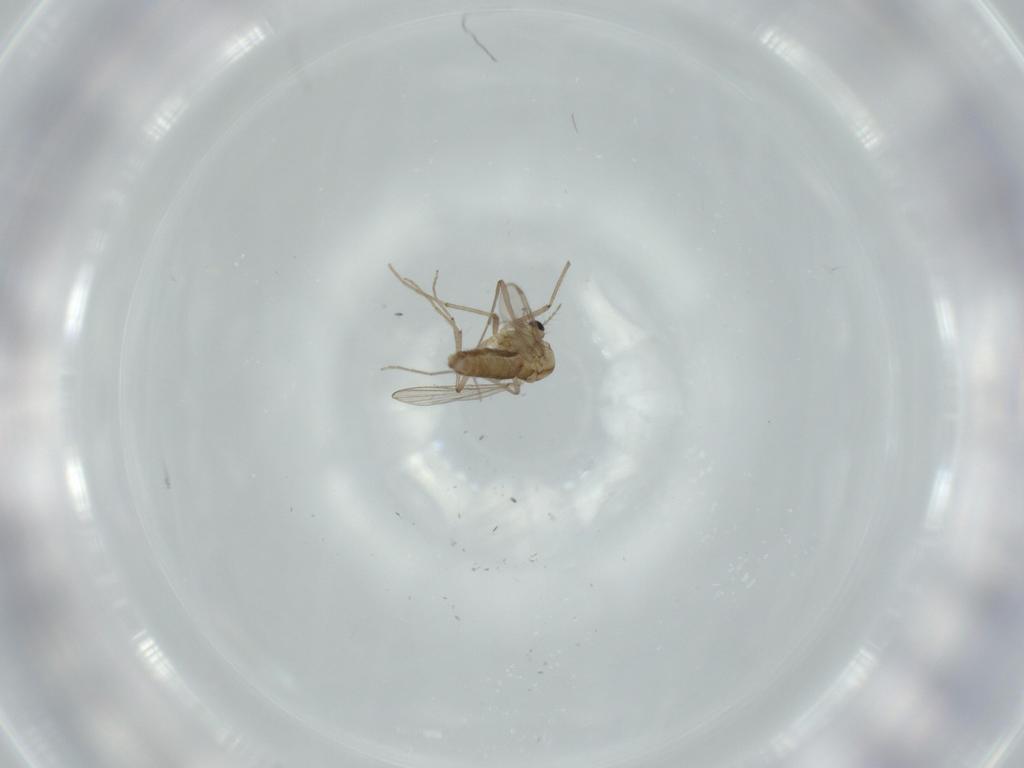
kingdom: Animalia
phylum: Arthropoda
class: Insecta
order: Diptera
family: Chironomidae
